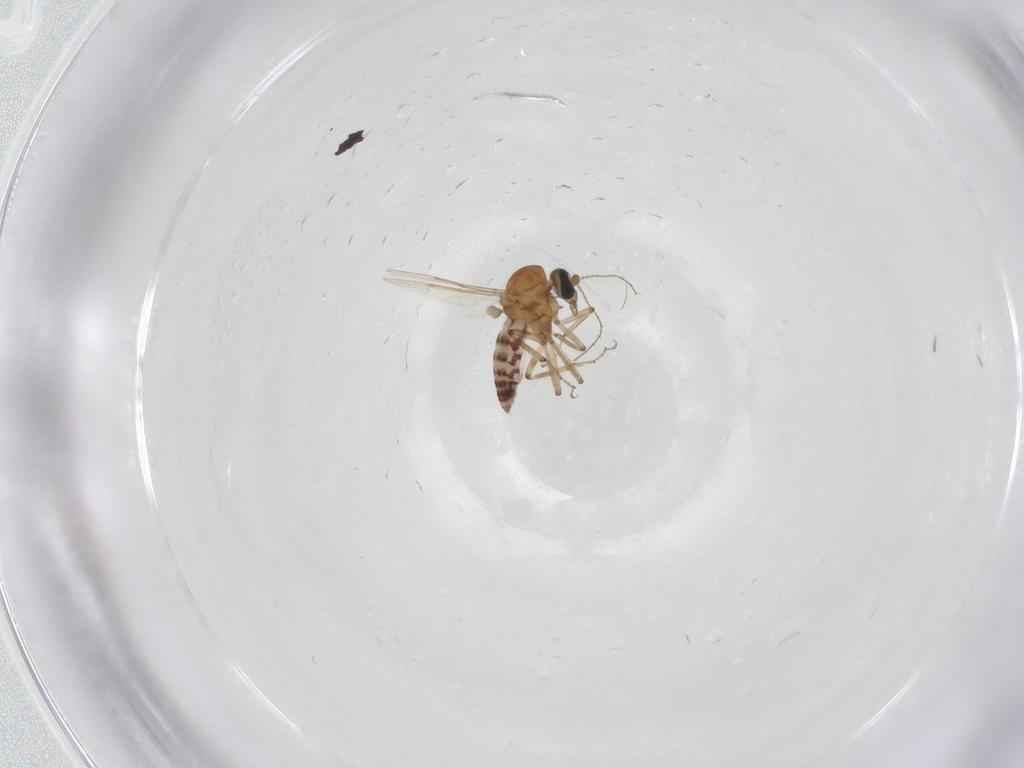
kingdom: Animalia
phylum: Arthropoda
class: Insecta
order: Diptera
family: Ceratopogonidae
